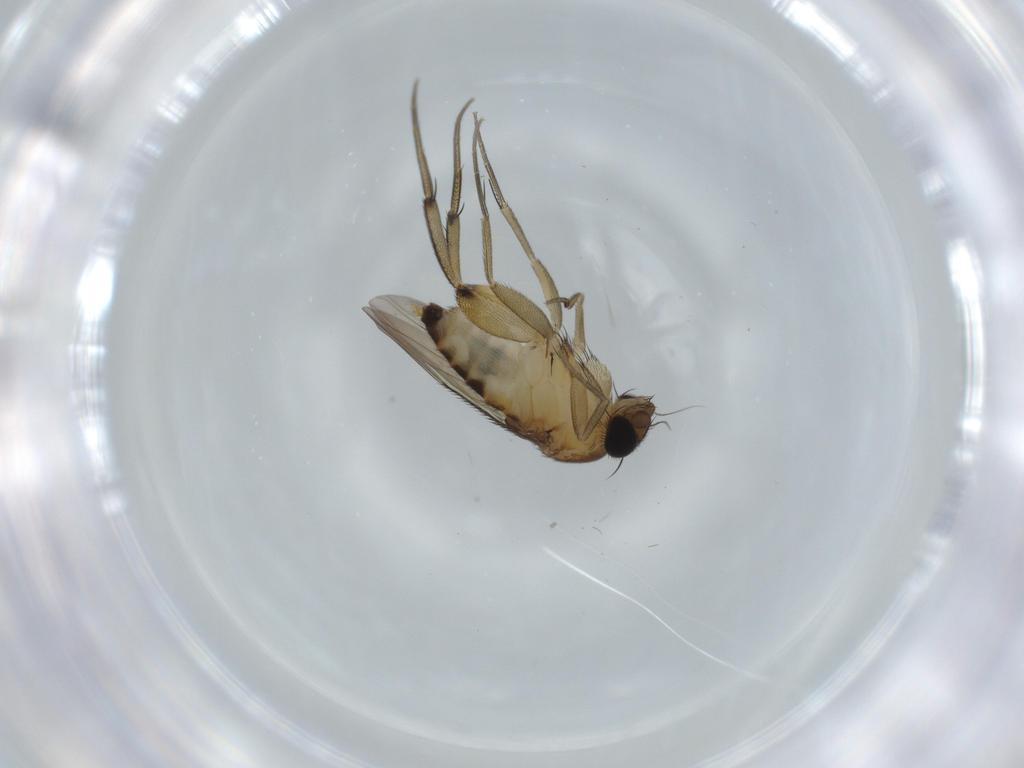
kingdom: Animalia
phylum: Arthropoda
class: Insecta
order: Diptera
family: Phoridae
